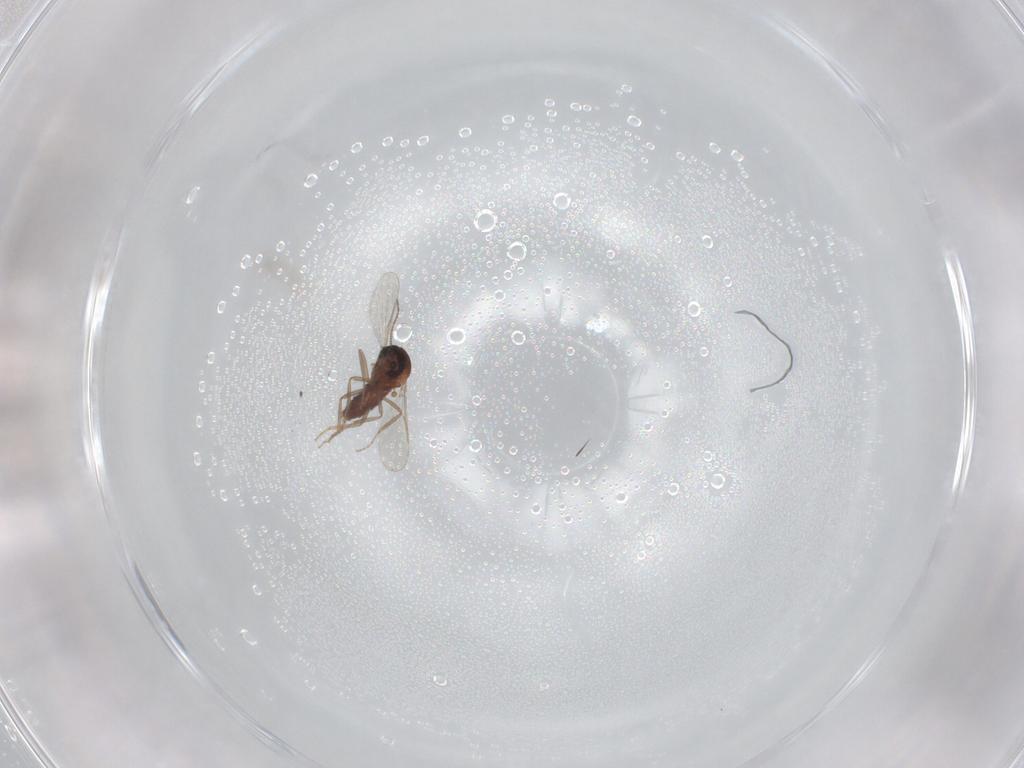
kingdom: Animalia
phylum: Arthropoda
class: Insecta
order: Diptera
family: Ceratopogonidae
